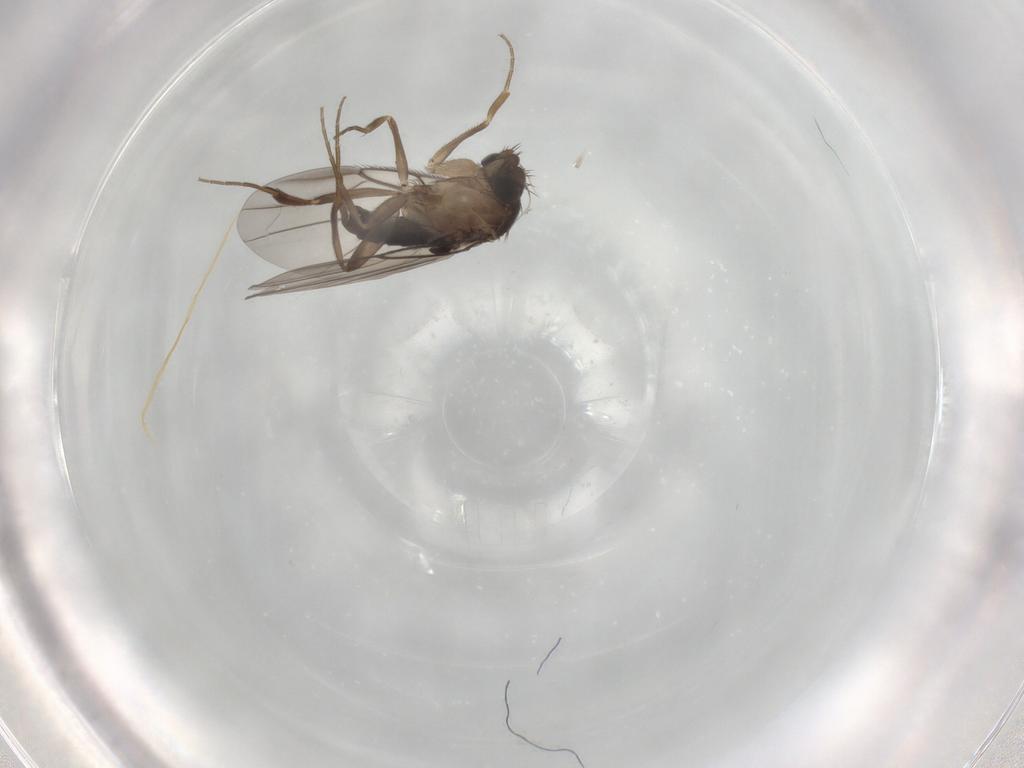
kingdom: Animalia
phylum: Arthropoda
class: Insecta
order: Diptera
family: Phoridae
